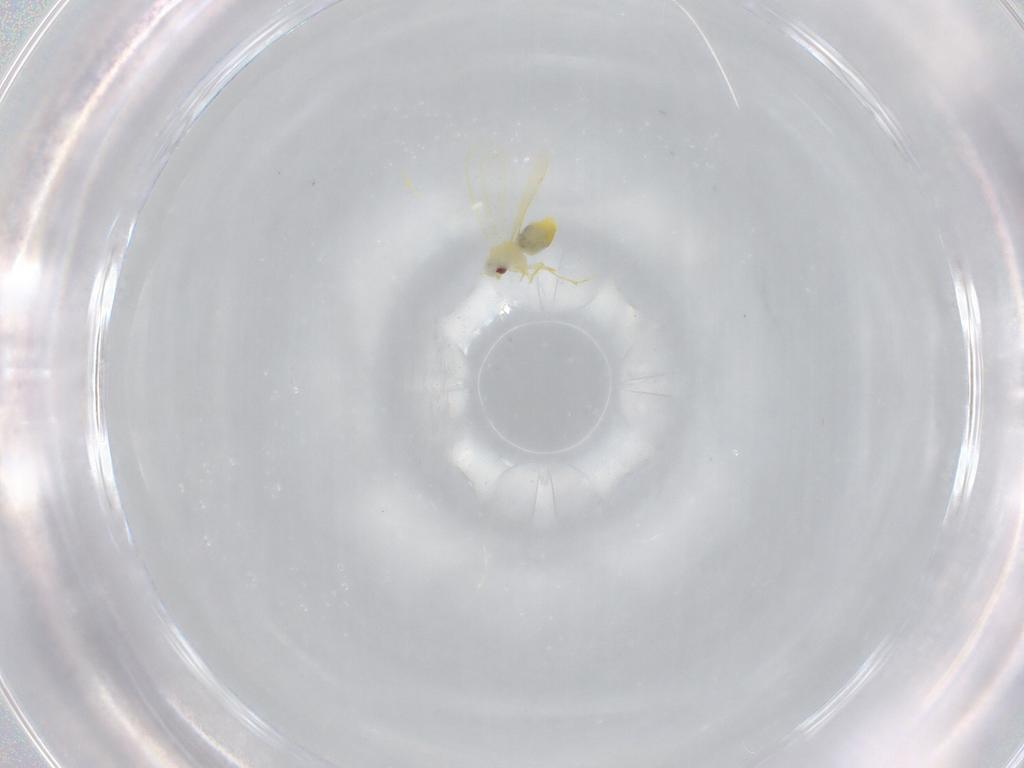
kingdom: Animalia
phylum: Arthropoda
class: Insecta
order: Hemiptera
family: Aleyrodidae
